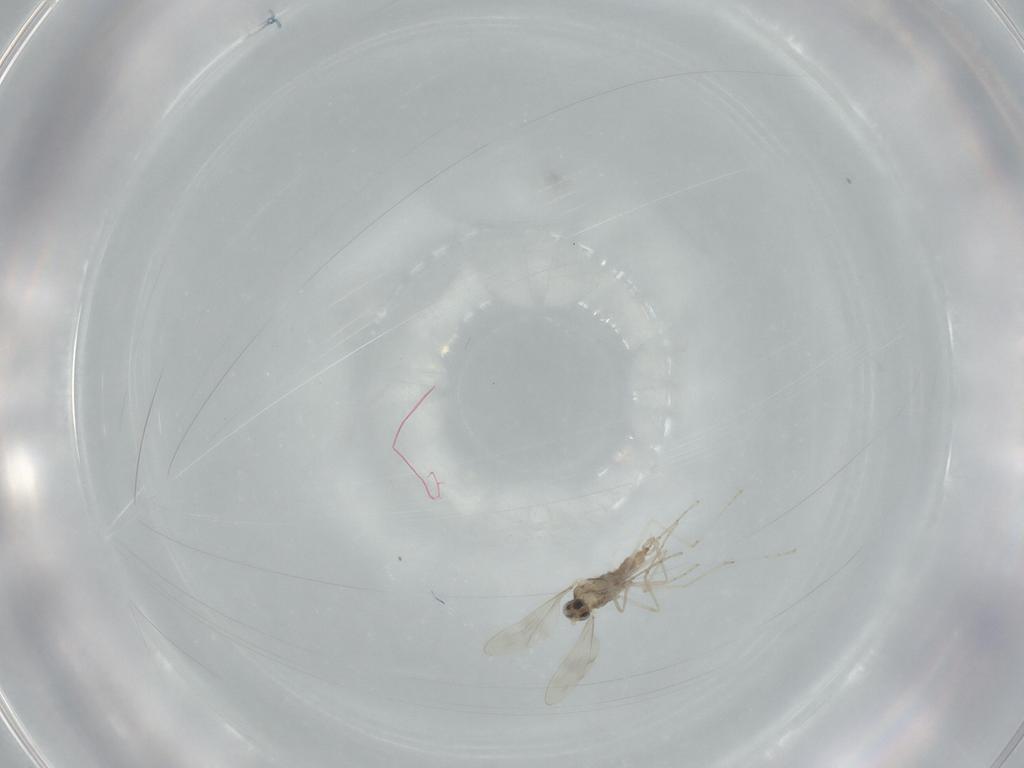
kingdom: Animalia
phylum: Arthropoda
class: Insecta
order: Diptera
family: Cecidomyiidae
